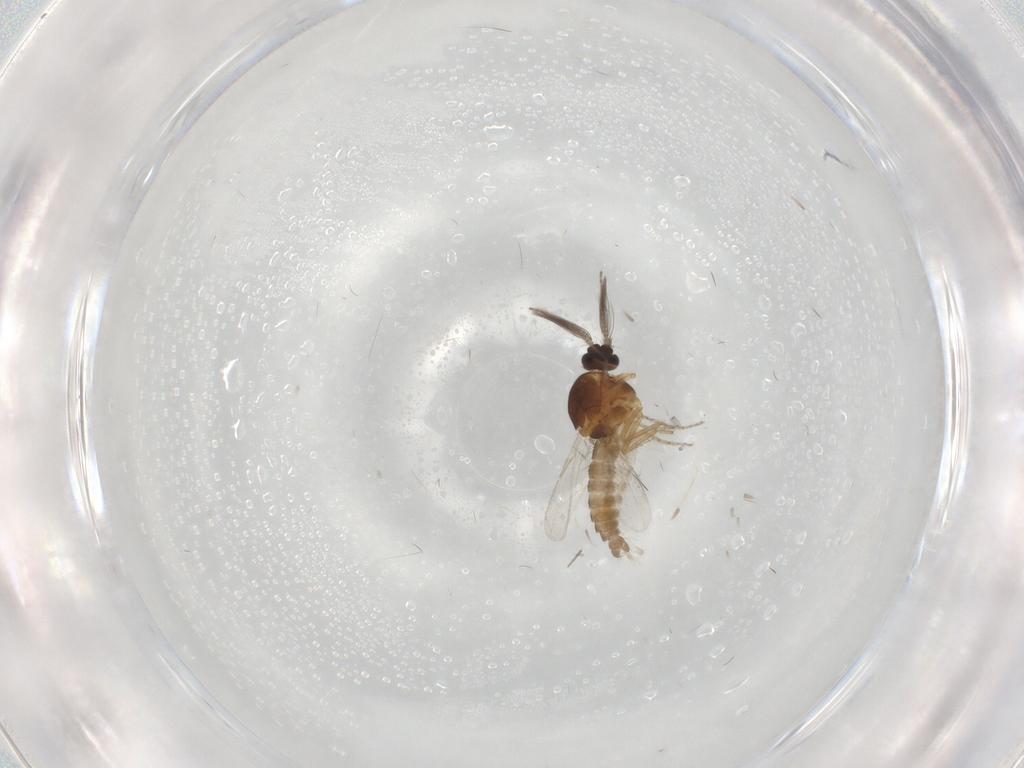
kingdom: Animalia
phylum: Arthropoda
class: Insecta
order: Diptera
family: Ceratopogonidae
